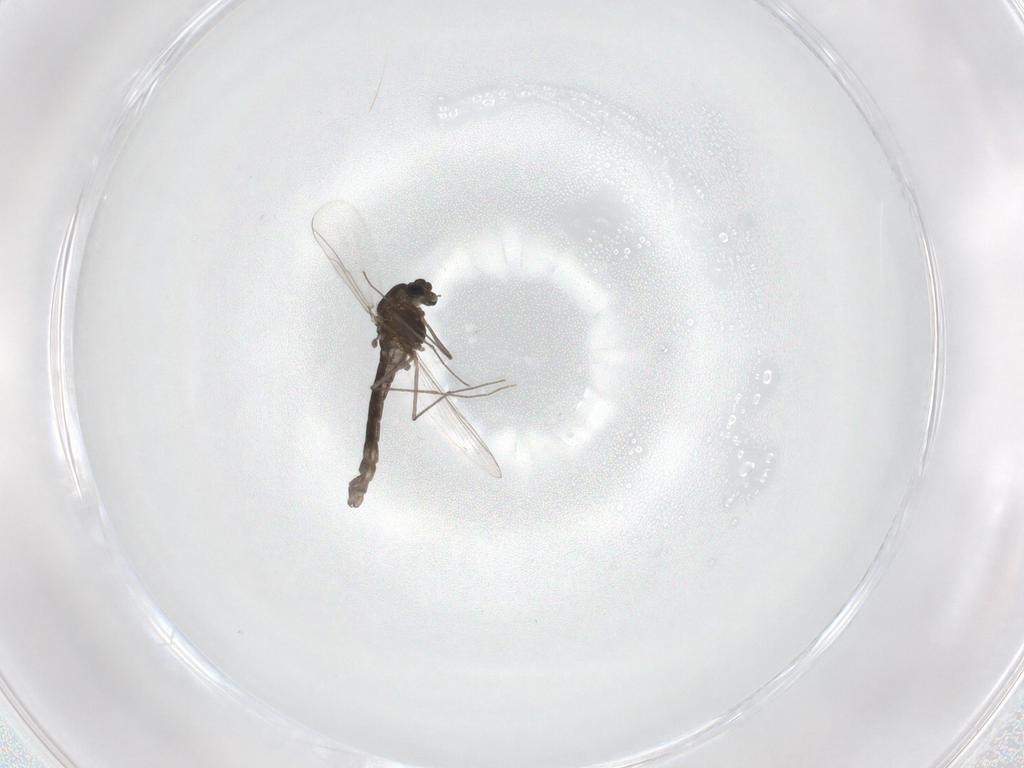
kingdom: Animalia
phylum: Arthropoda
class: Insecta
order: Diptera
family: Chironomidae
